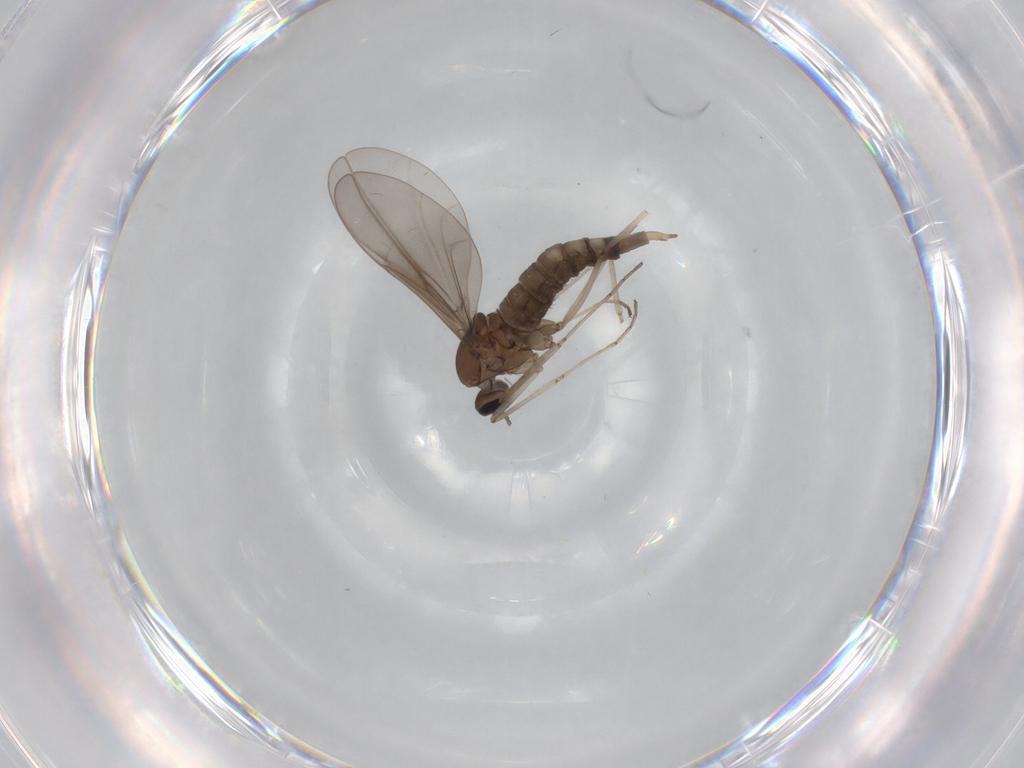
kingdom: Animalia
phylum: Arthropoda
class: Insecta
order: Diptera
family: Cecidomyiidae
